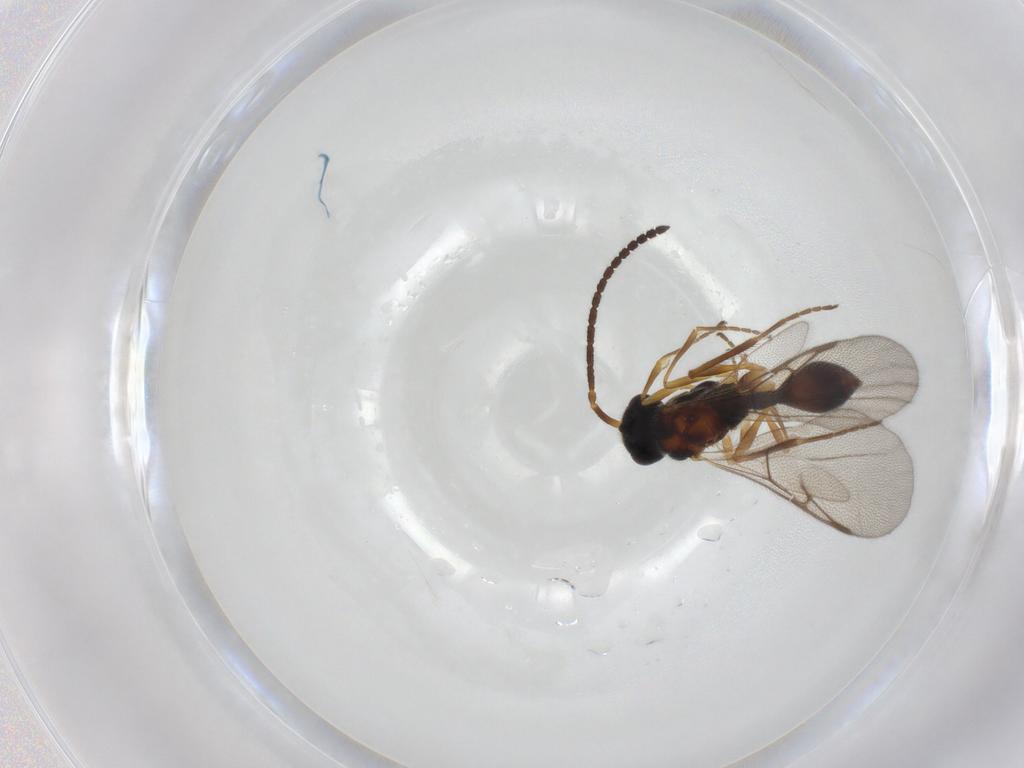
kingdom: Animalia
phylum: Arthropoda
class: Insecta
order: Hymenoptera
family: Diapriidae
